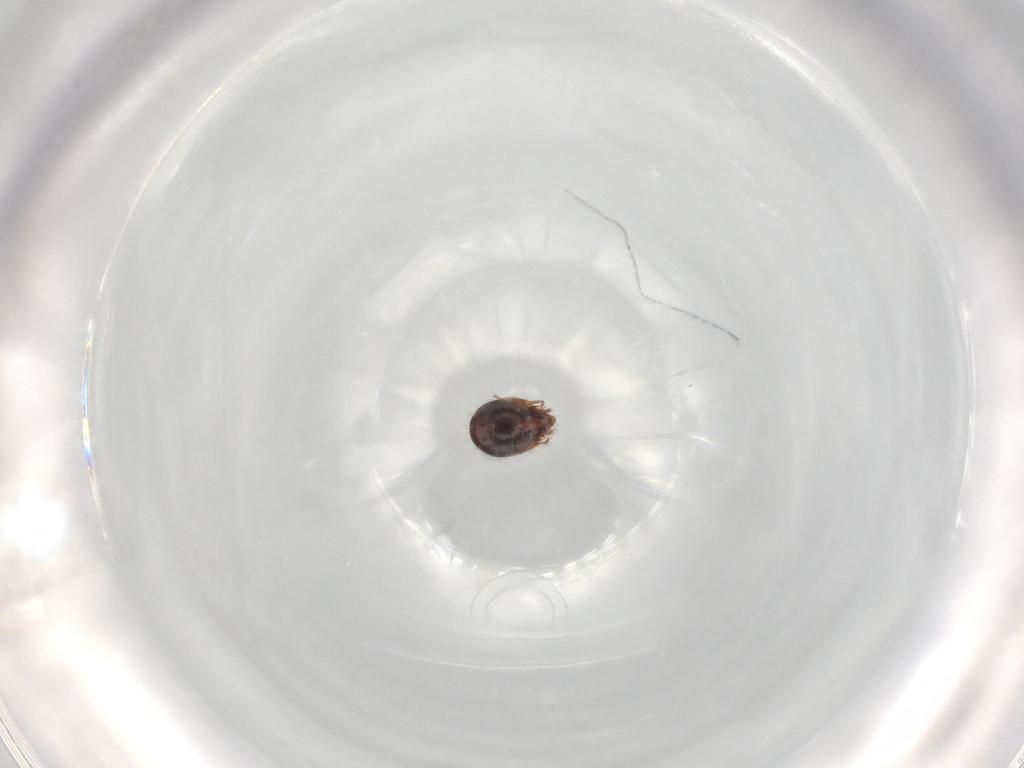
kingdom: Animalia
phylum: Arthropoda
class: Arachnida
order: Sarcoptiformes
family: Humerobatidae
